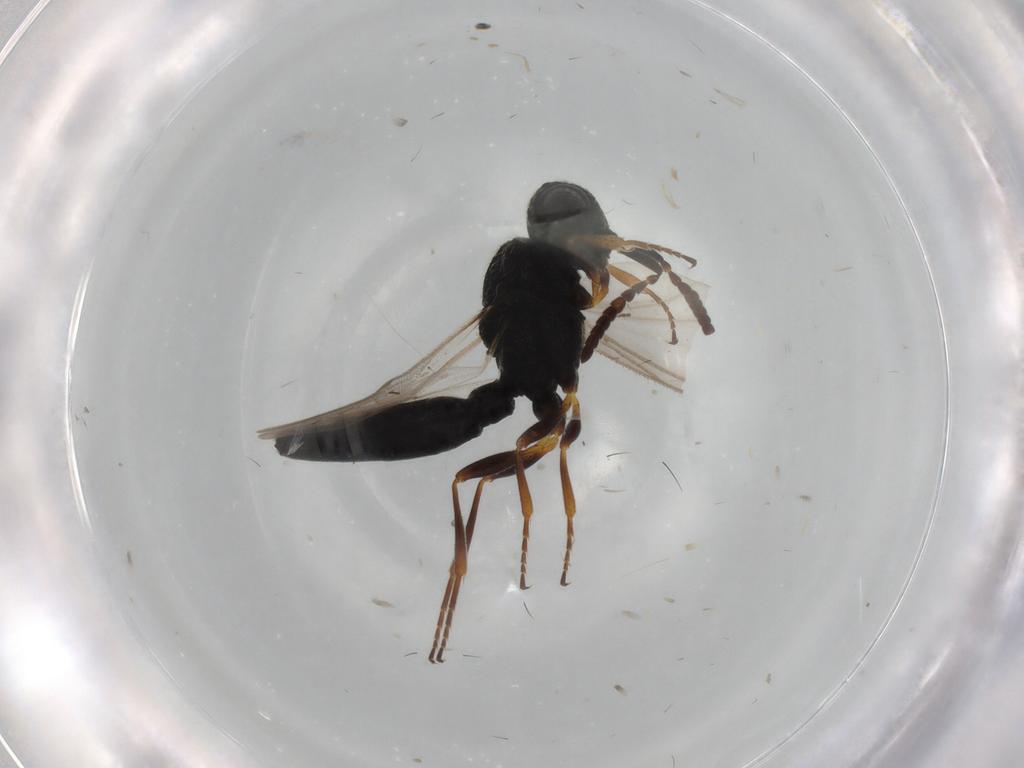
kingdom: Animalia
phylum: Arthropoda
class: Insecta
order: Hymenoptera
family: Scelionidae
